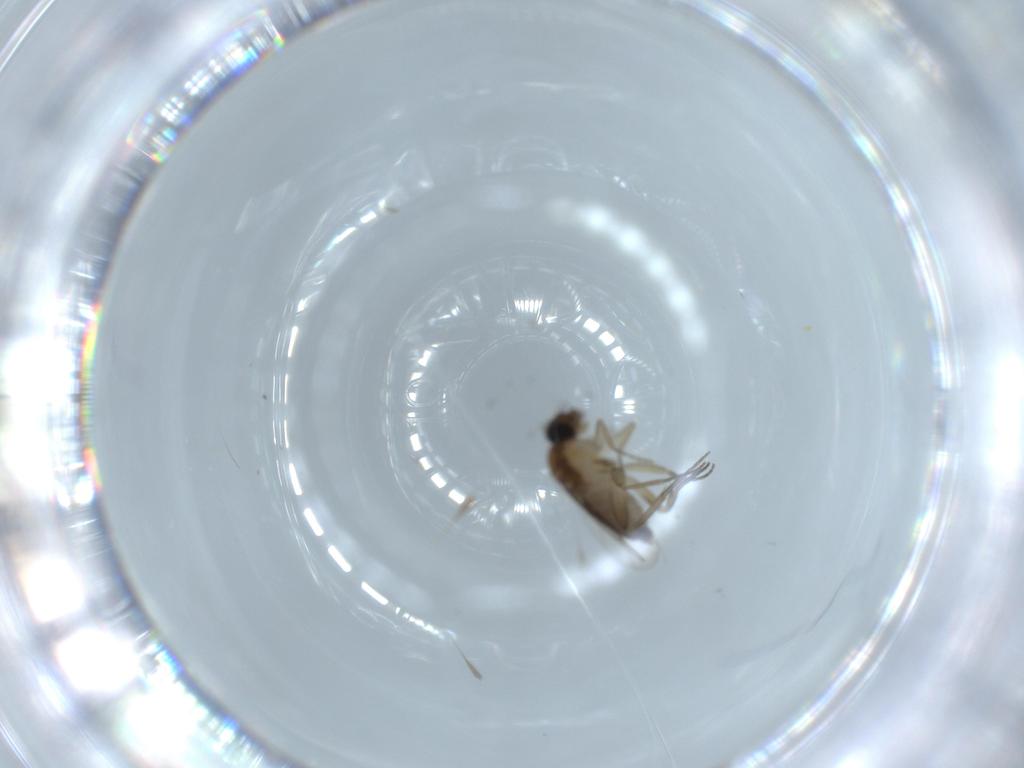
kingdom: Animalia
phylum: Arthropoda
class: Insecta
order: Diptera
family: Phoridae
